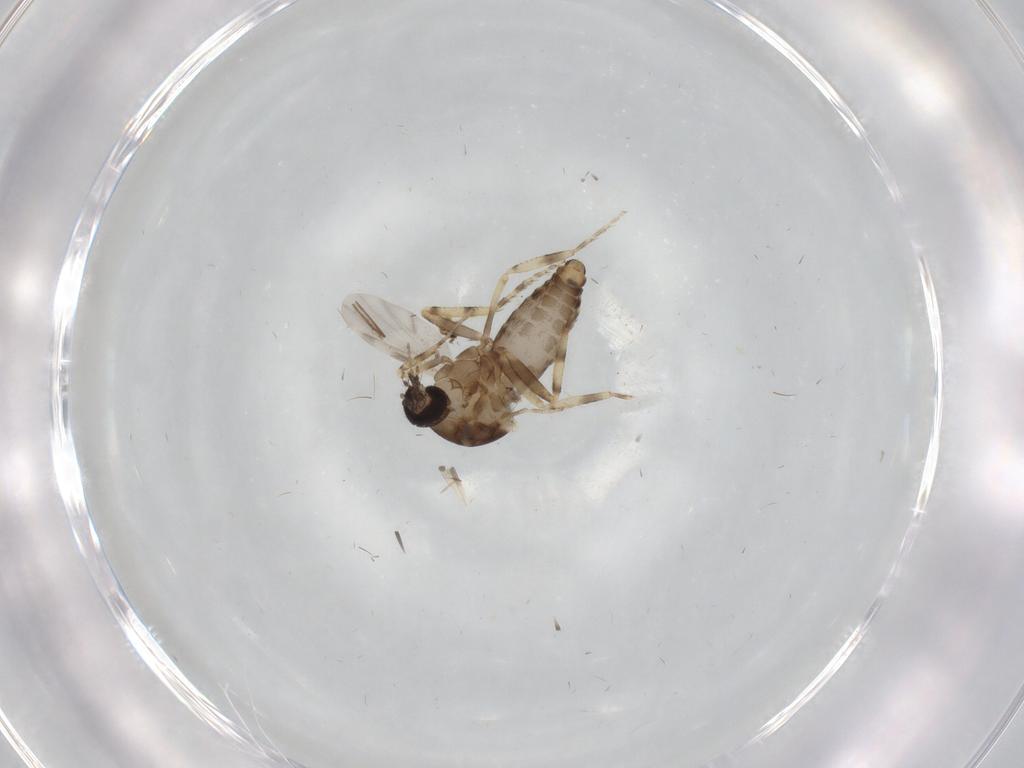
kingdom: Animalia
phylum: Arthropoda
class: Insecta
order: Diptera
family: Ceratopogonidae
